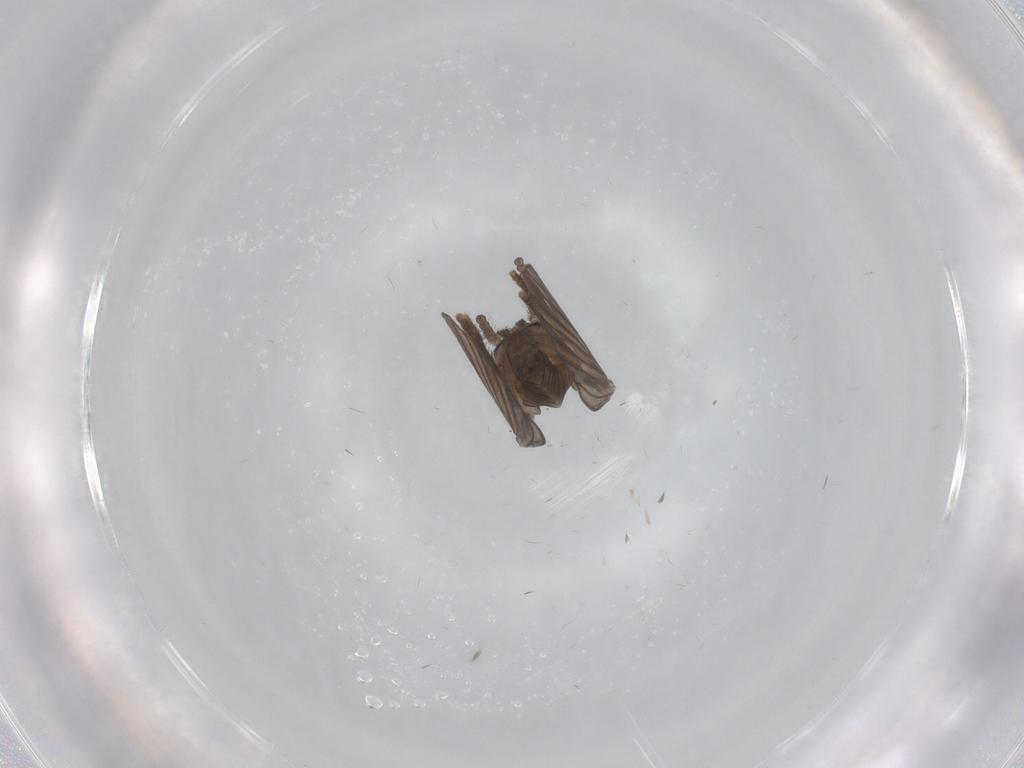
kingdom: Animalia
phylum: Arthropoda
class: Insecta
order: Diptera
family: Psychodidae
